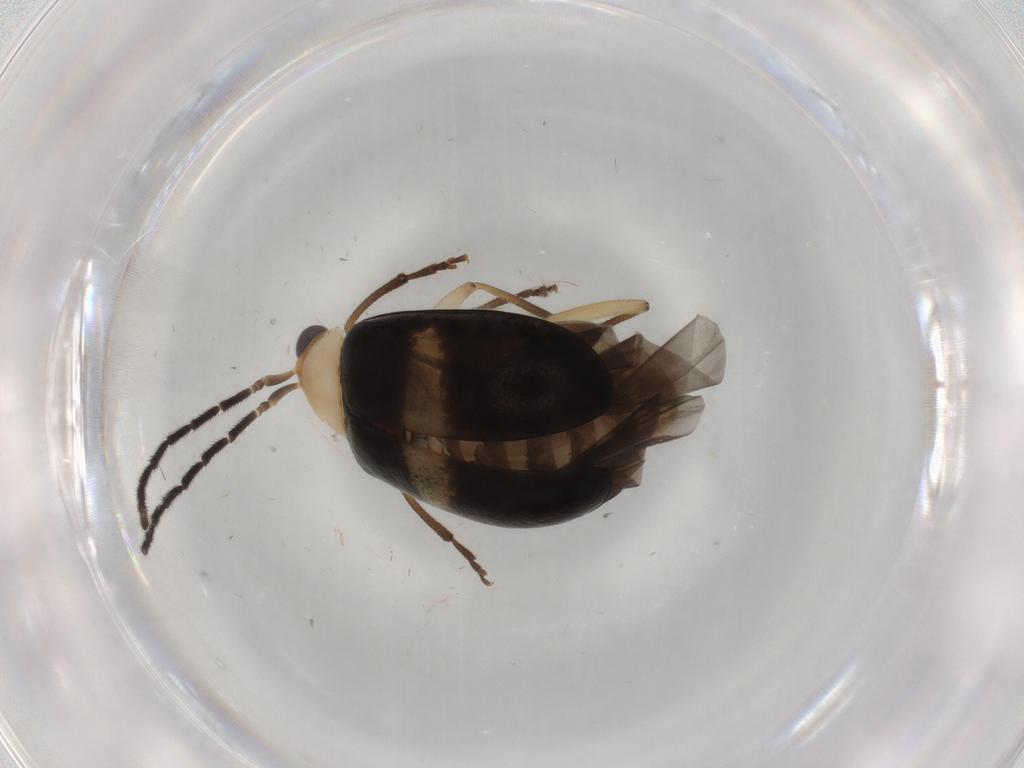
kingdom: Animalia
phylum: Arthropoda
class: Insecta
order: Coleoptera
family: Chrysomelidae
